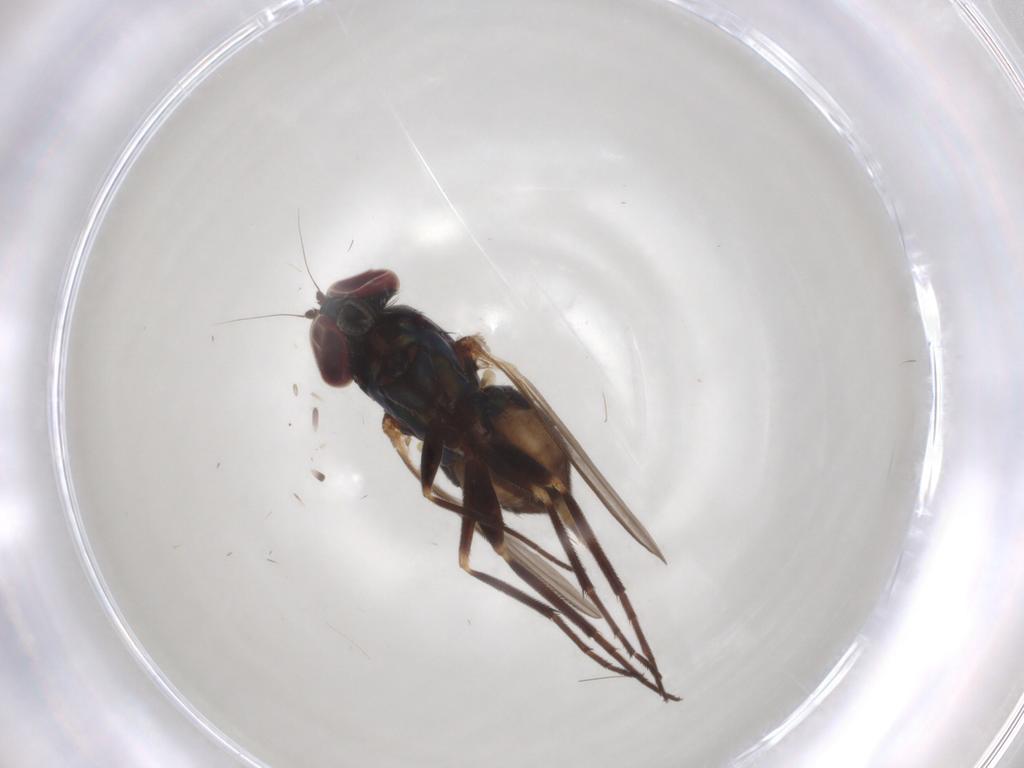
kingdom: Animalia
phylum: Arthropoda
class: Insecta
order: Diptera
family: Dolichopodidae
